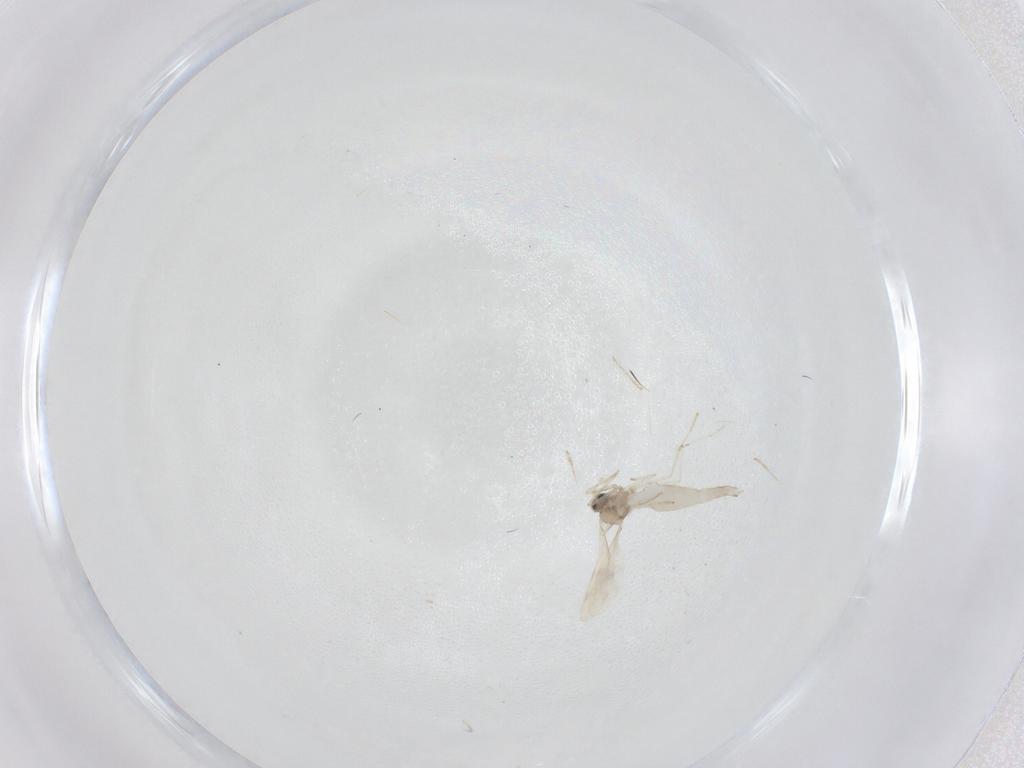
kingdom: Animalia
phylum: Arthropoda
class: Insecta
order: Diptera
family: Cecidomyiidae
